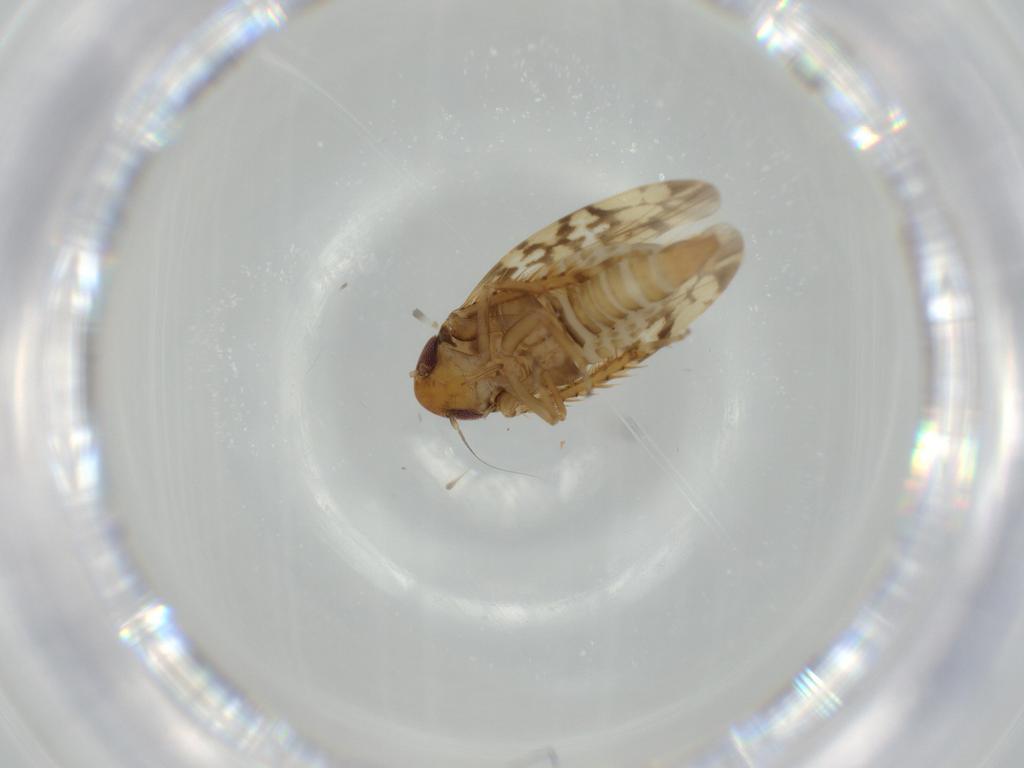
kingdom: Animalia
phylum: Arthropoda
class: Insecta
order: Hemiptera
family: Cicadellidae
